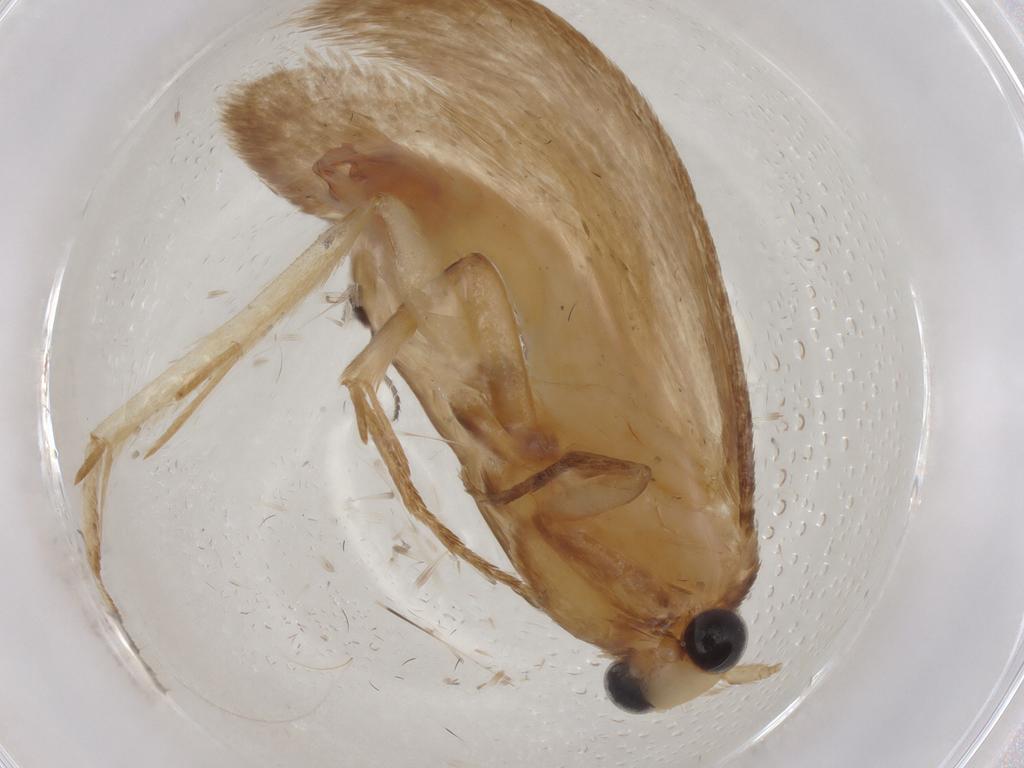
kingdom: Animalia
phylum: Arthropoda
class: Insecta
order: Lepidoptera
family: Tineidae
